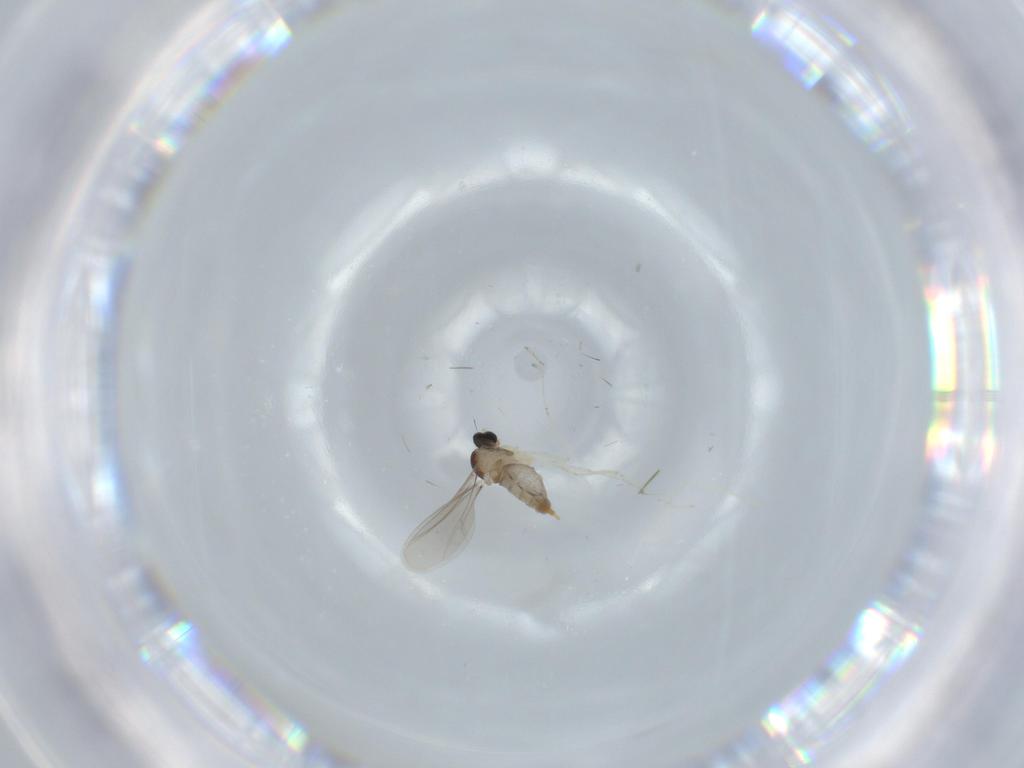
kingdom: Animalia
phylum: Arthropoda
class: Insecta
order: Diptera
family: Cecidomyiidae
